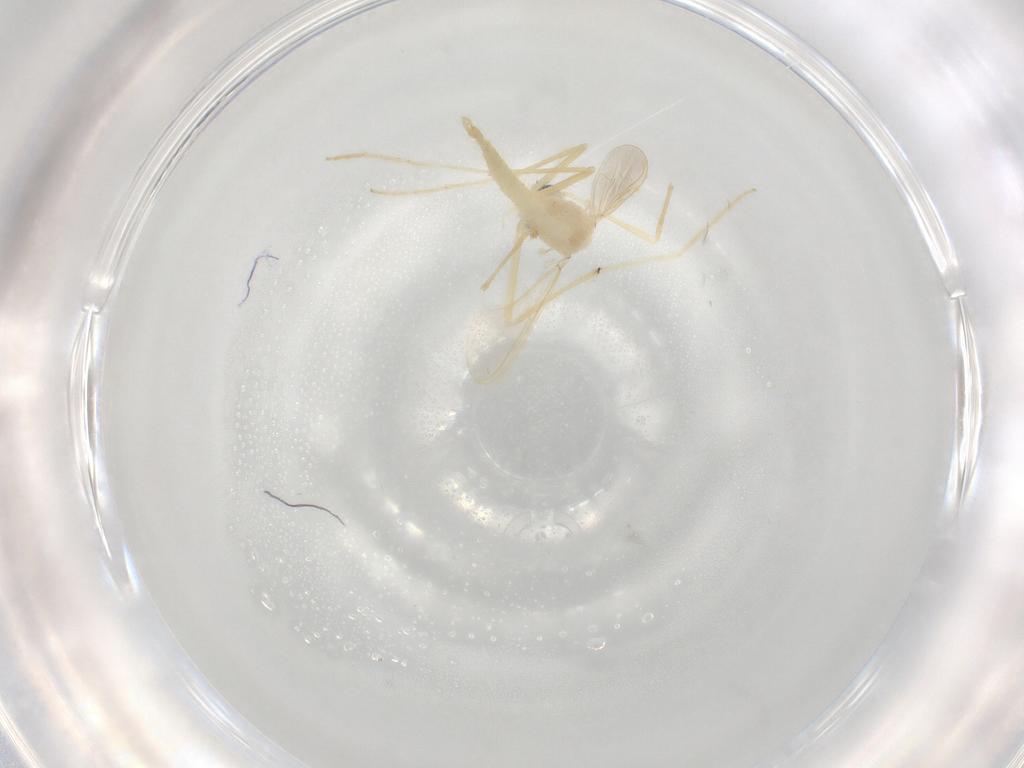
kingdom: Animalia
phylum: Arthropoda
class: Insecta
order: Diptera
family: Chironomidae
